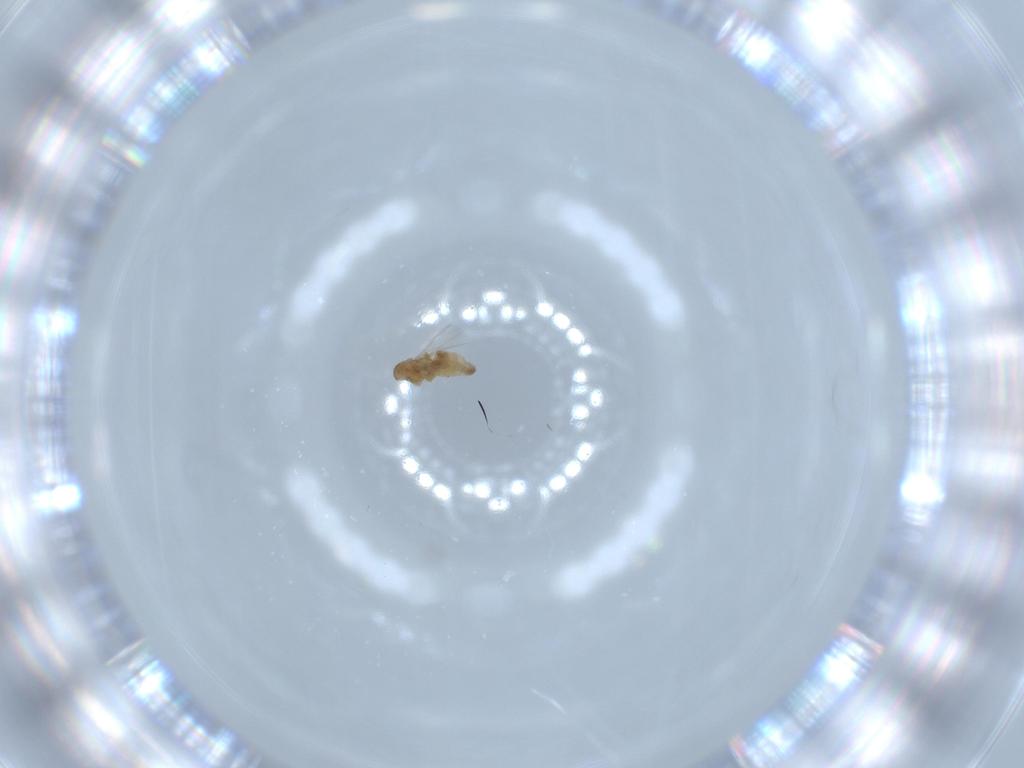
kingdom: Animalia
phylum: Arthropoda
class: Insecta
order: Diptera
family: Cecidomyiidae
